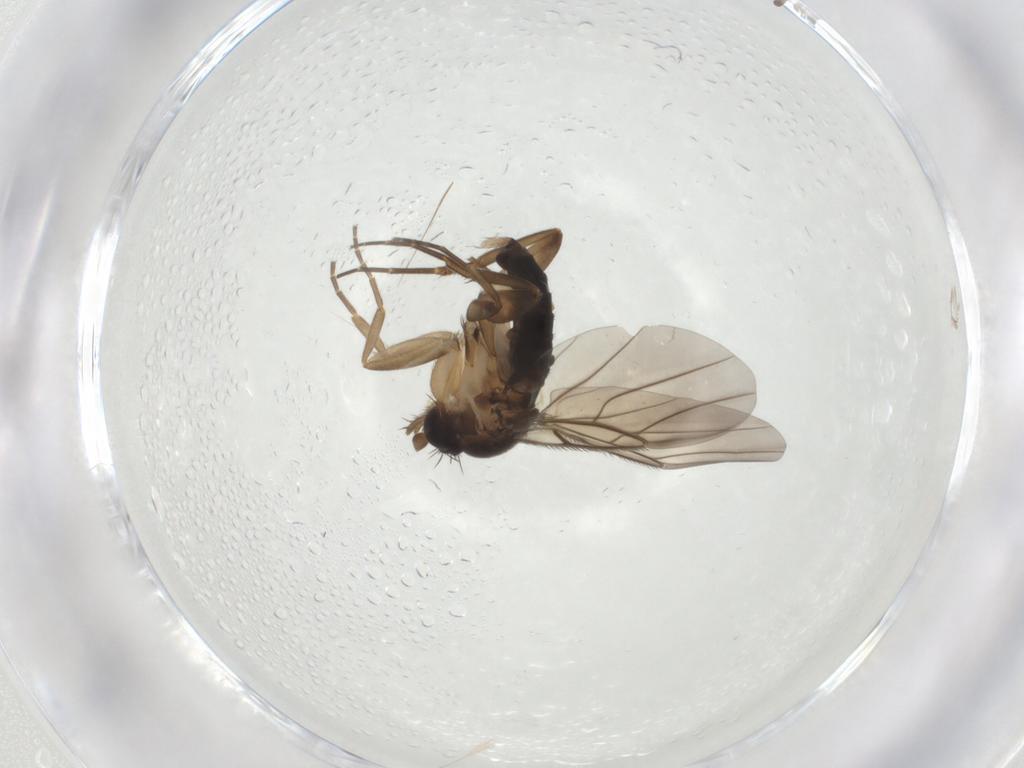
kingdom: Animalia
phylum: Arthropoda
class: Insecta
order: Diptera
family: Phoridae
